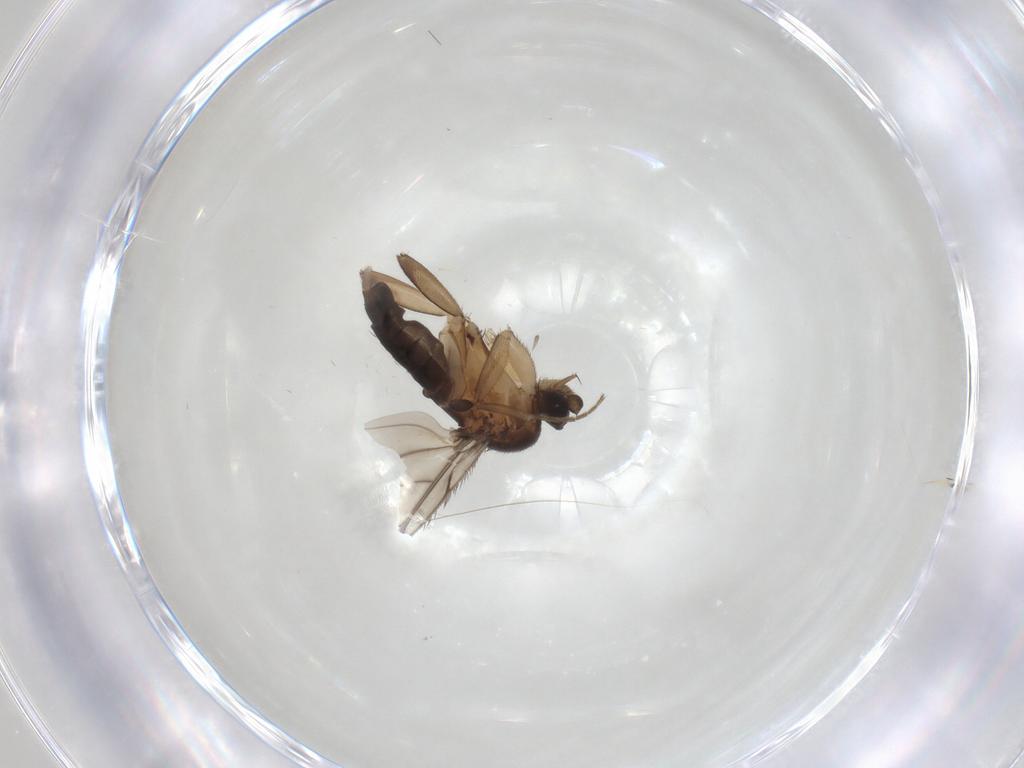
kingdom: Animalia
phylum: Arthropoda
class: Insecta
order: Diptera
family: Phoridae
